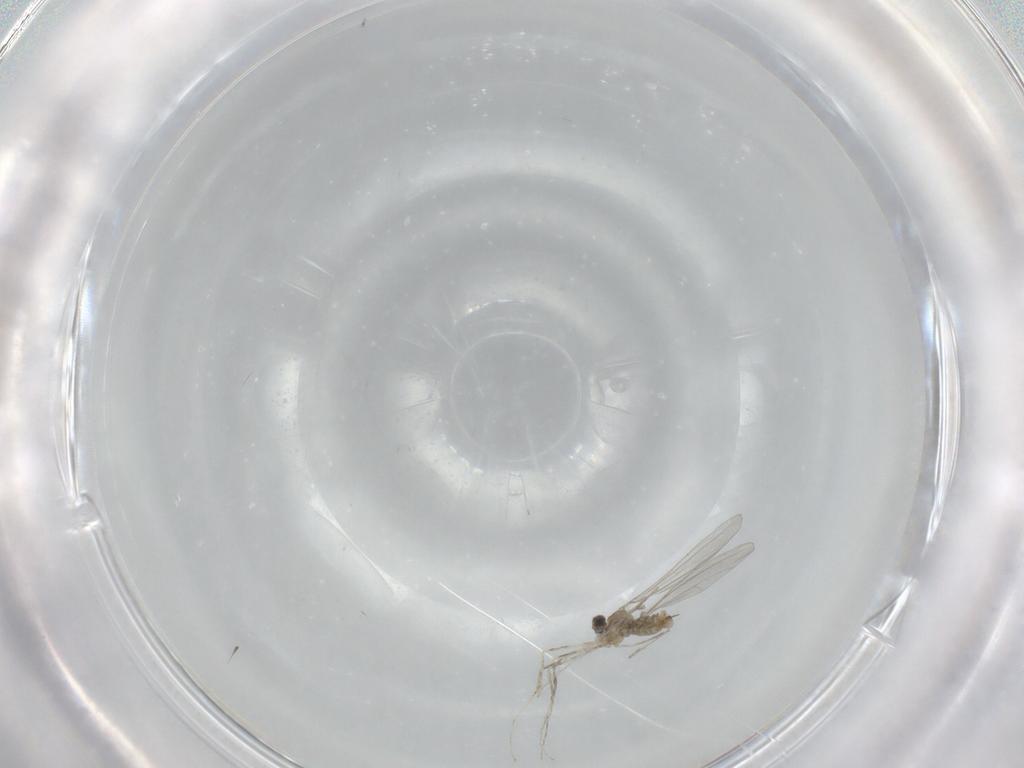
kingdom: Animalia
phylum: Arthropoda
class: Insecta
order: Diptera
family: Cecidomyiidae
